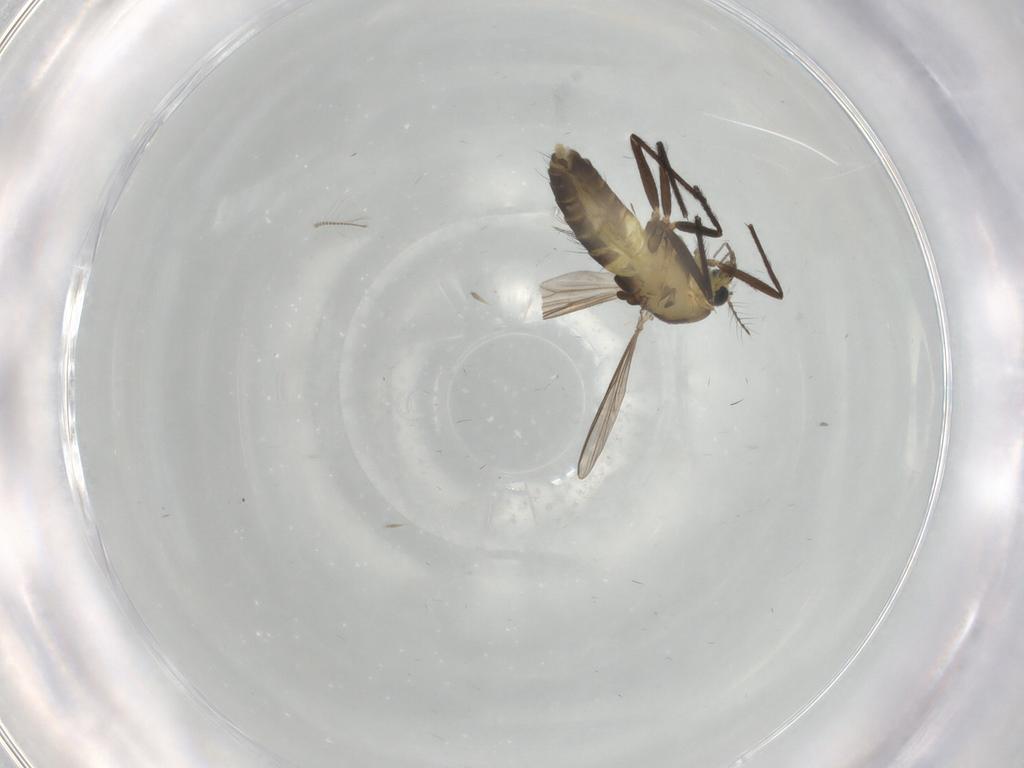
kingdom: Animalia
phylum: Arthropoda
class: Insecta
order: Diptera
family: Chironomidae
